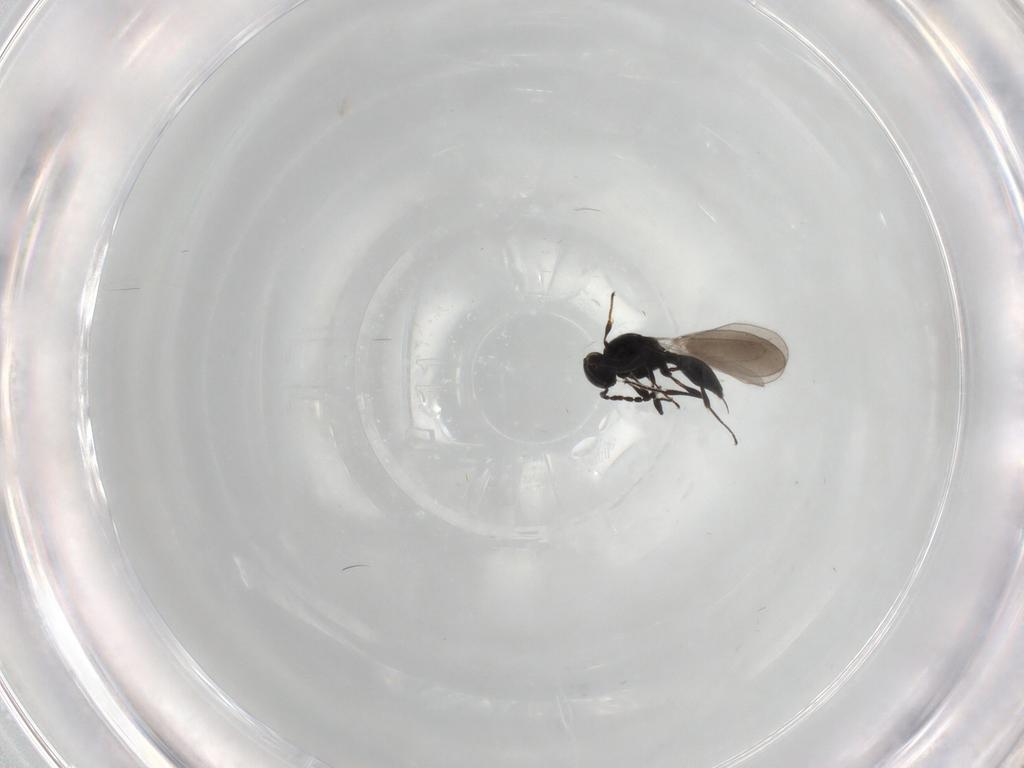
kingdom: Animalia
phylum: Arthropoda
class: Insecta
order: Hymenoptera
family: Platygastridae
